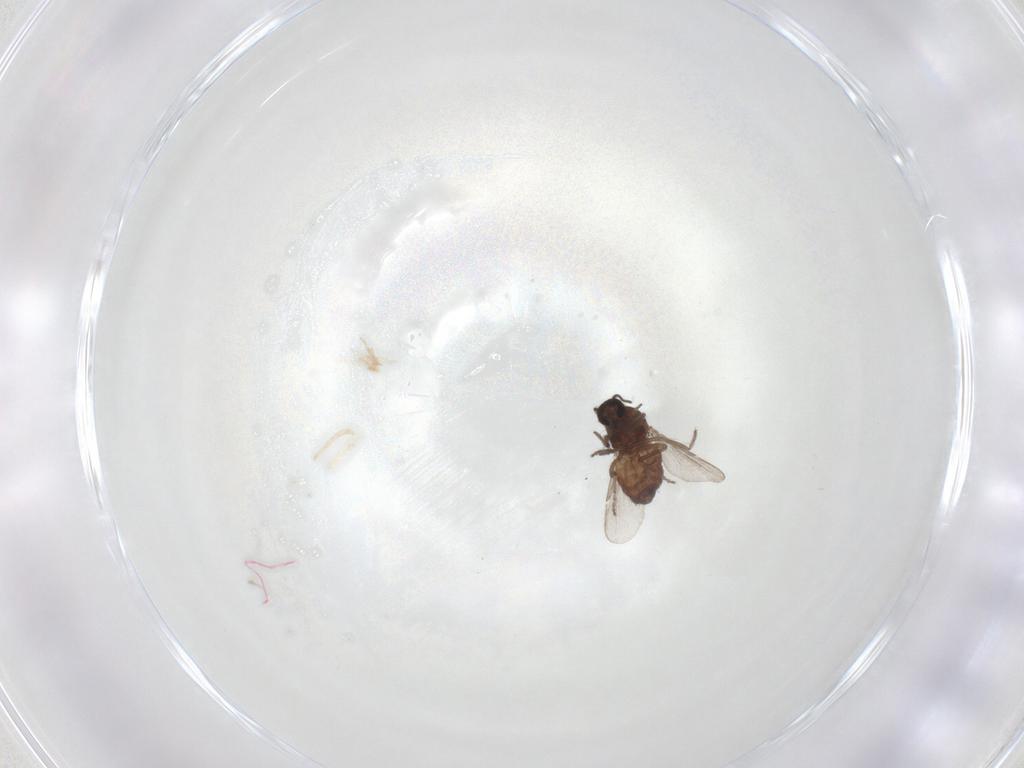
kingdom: Animalia
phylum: Arthropoda
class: Insecta
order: Diptera
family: Ceratopogonidae
